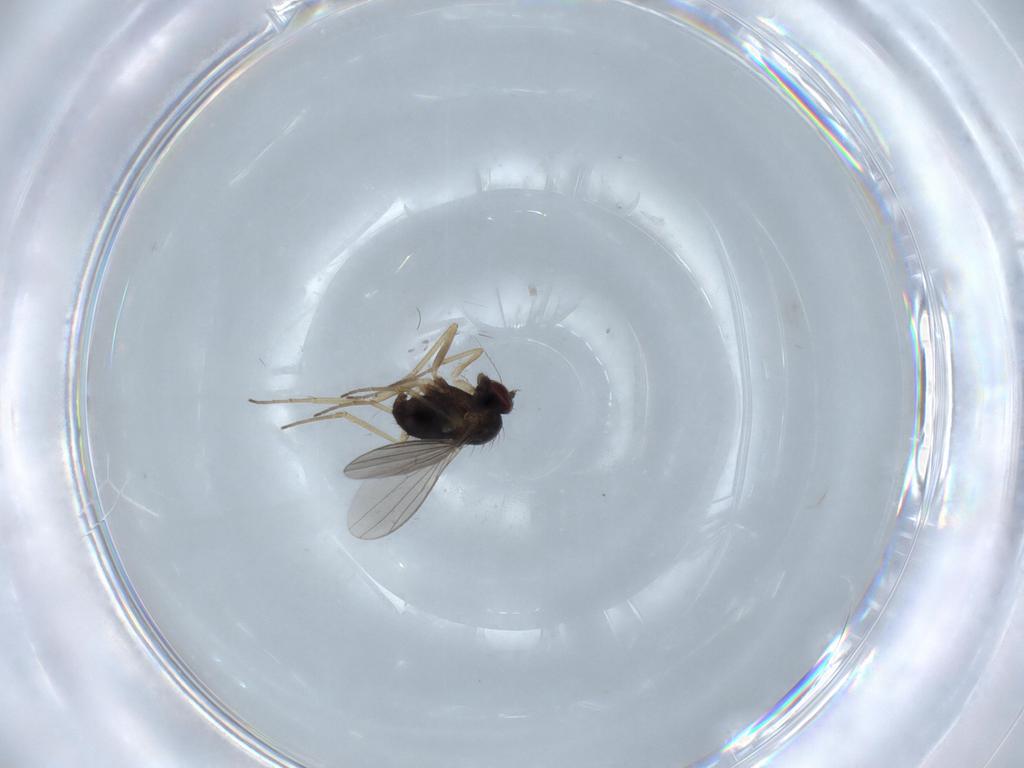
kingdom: Animalia
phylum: Arthropoda
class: Insecta
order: Diptera
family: Dolichopodidae
